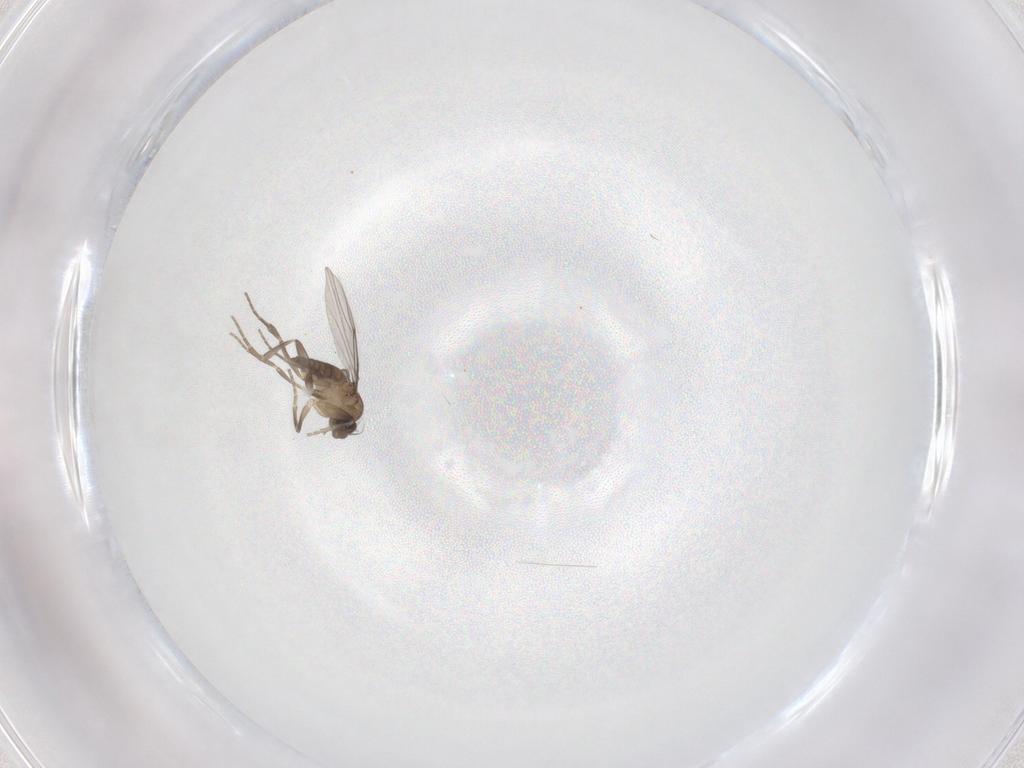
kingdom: Animalia
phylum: Arthropoda
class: Insecta
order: Diptera
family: Phoridae
